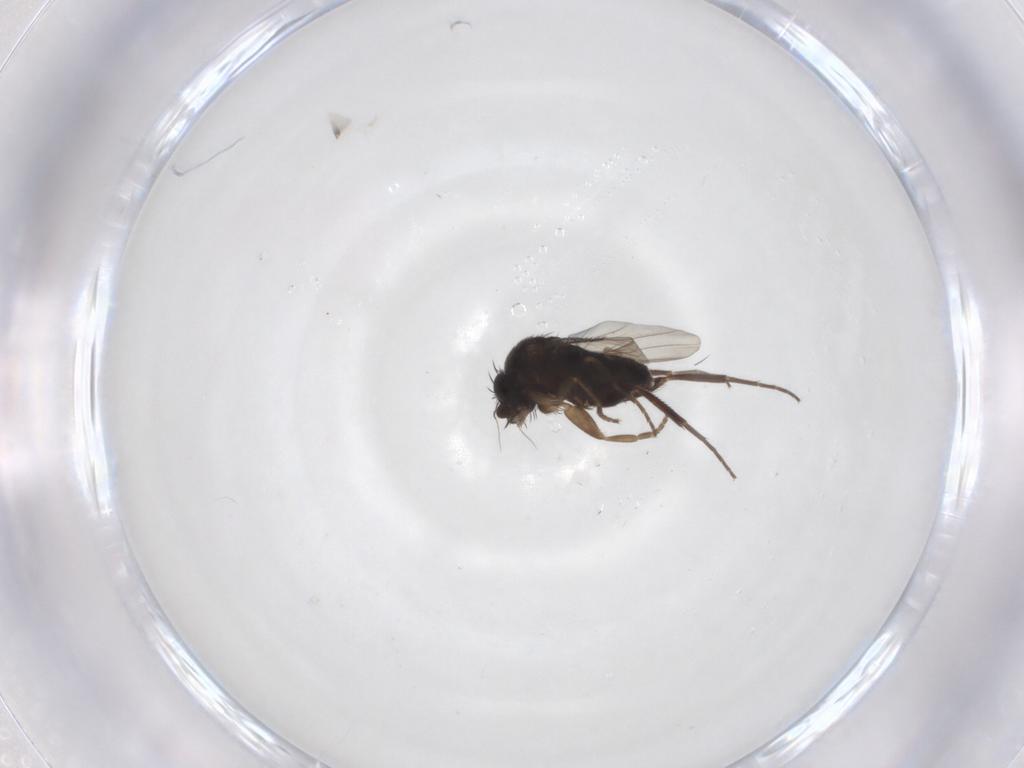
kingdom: Animalia
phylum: Arthropoda
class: Insecta
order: Diptera
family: Phoridae
